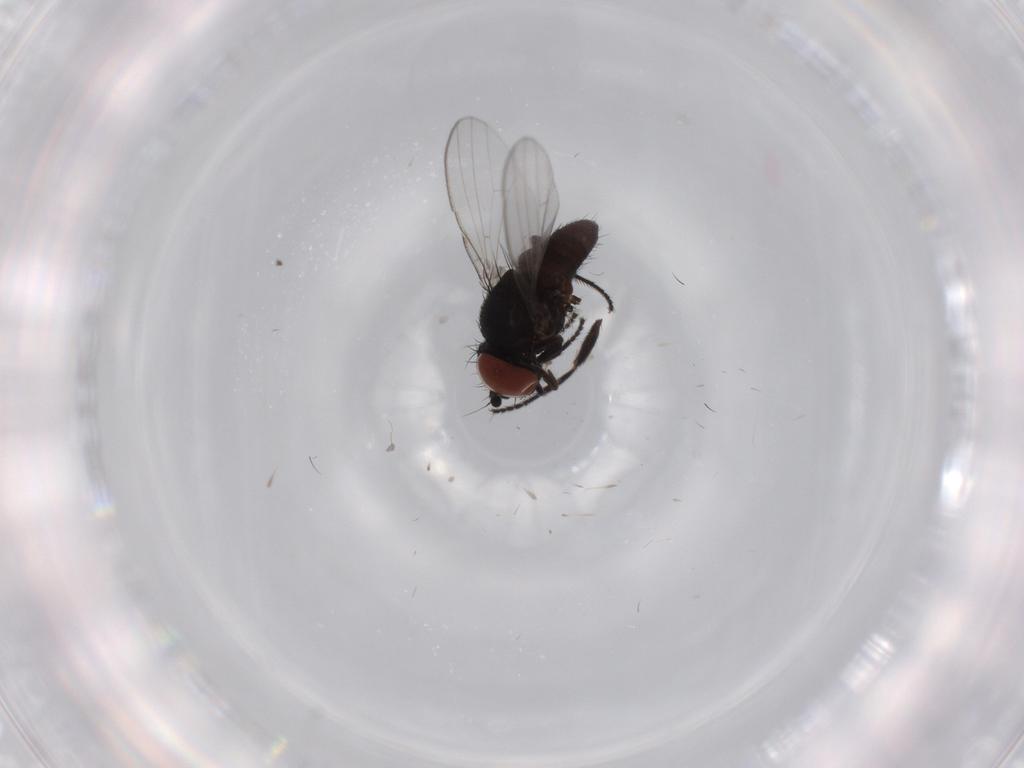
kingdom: Animalia
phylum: Arthropoda
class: Insecta
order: Diptera
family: Milichiidae
